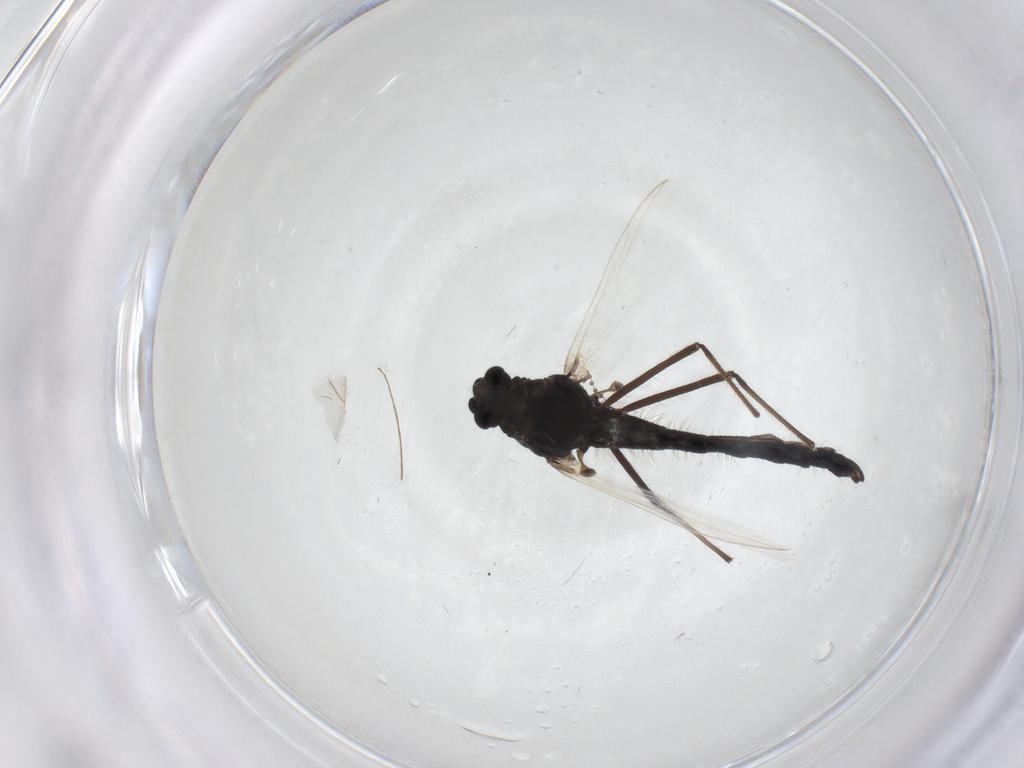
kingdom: Animalia
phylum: Arthropoda
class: Insecta
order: Diptera
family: Chironomidae
